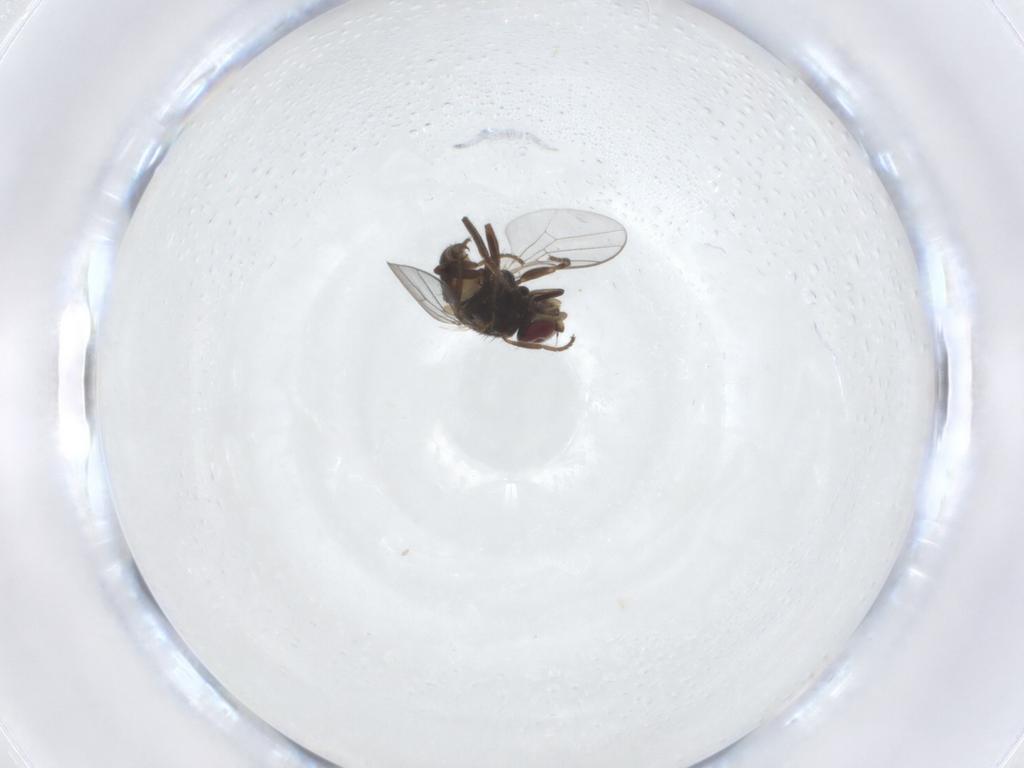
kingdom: Animalia
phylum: Arthropoda
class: Insecta
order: Diptera
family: Chloropidae
